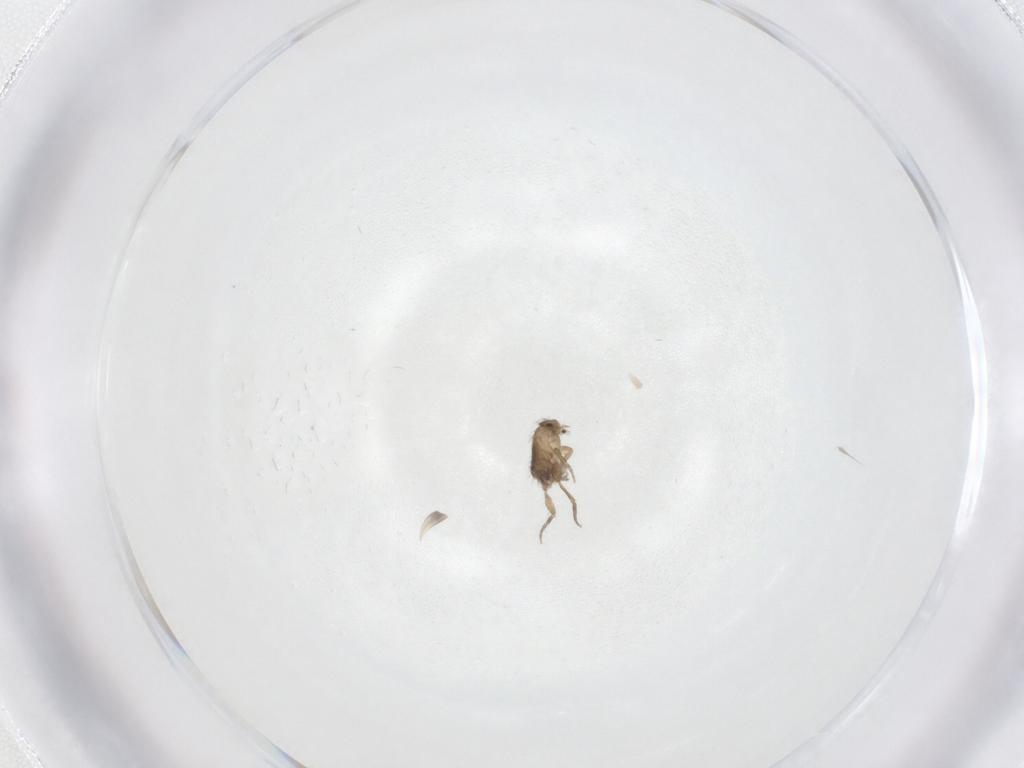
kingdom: Animalia
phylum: Arthropoda
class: Insecta
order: Diptera
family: Phoridae
